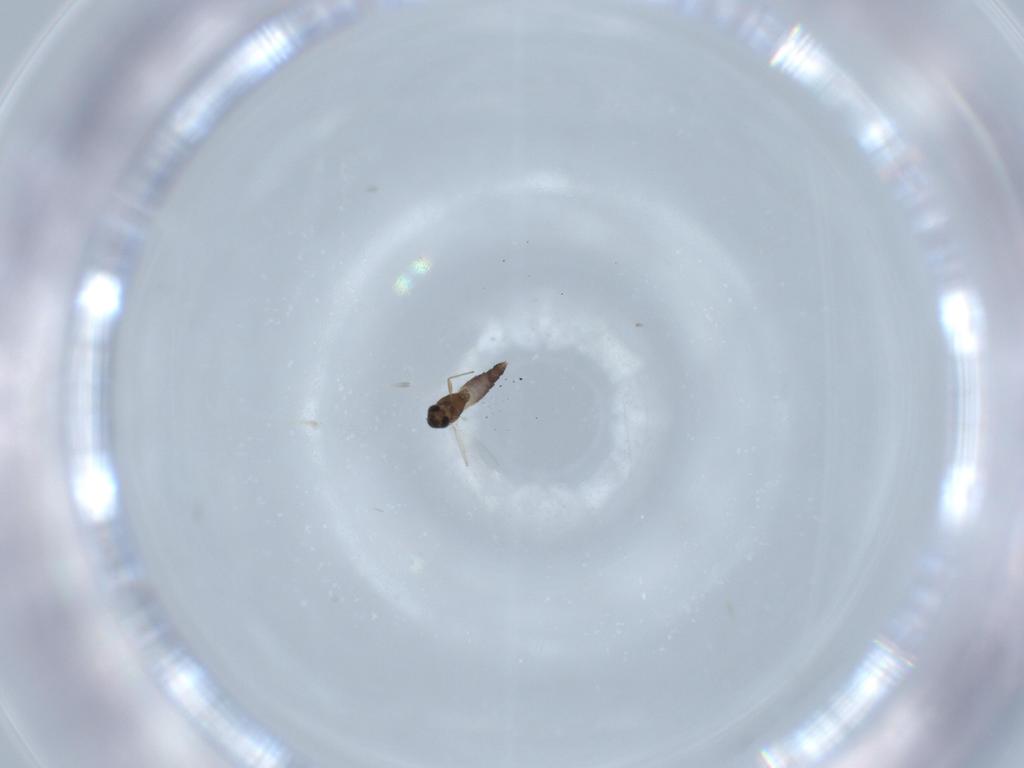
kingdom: Animalia
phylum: Arthropoda
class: Insecta
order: Diptera
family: Chironomidae
